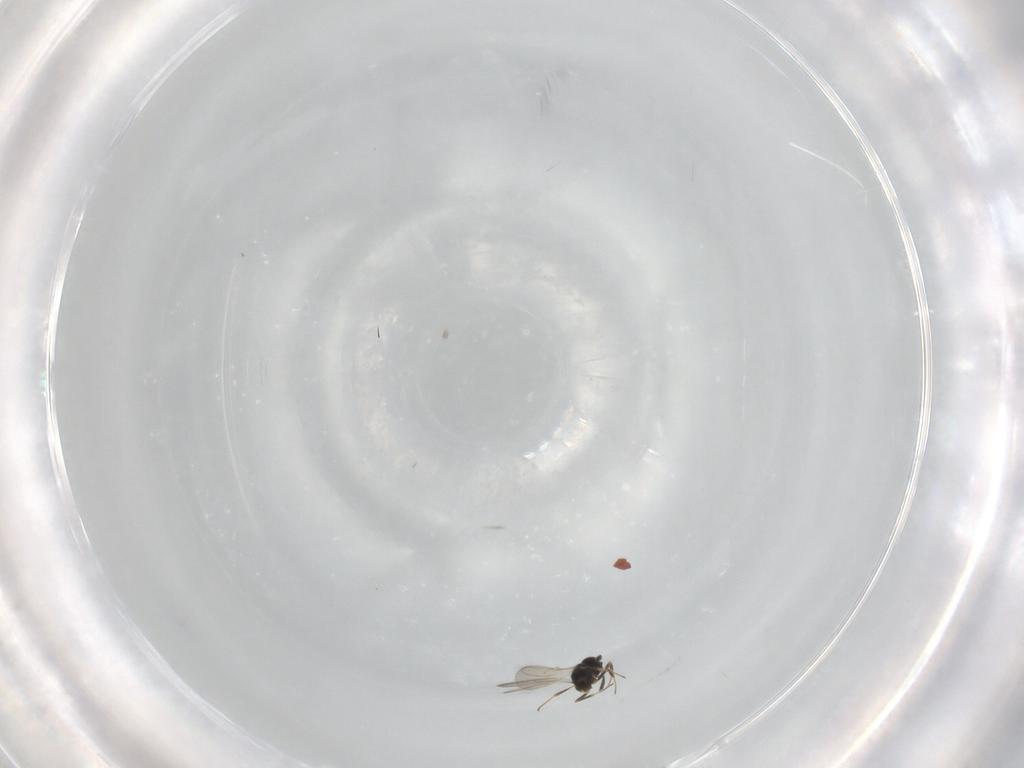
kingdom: Animalia
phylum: Arthropoda
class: Insecta
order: Hymenoptera
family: Scelionidae
